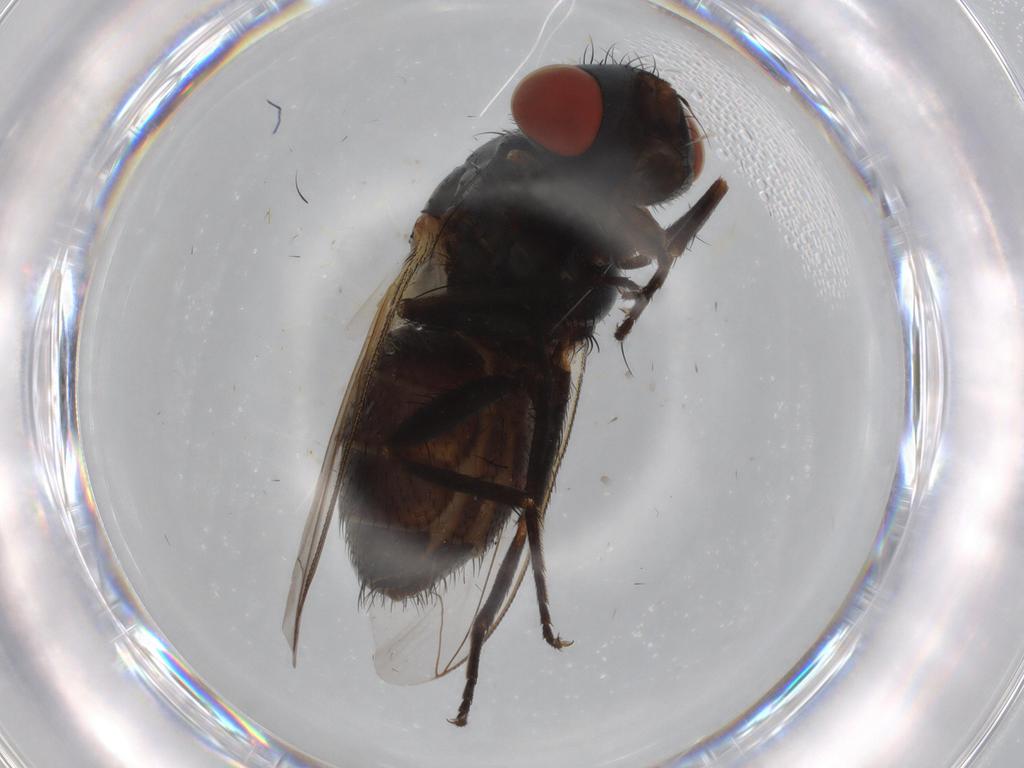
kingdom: Animalia
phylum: Arthropoda
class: Insecta
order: Diptera
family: Sarcophagidae
